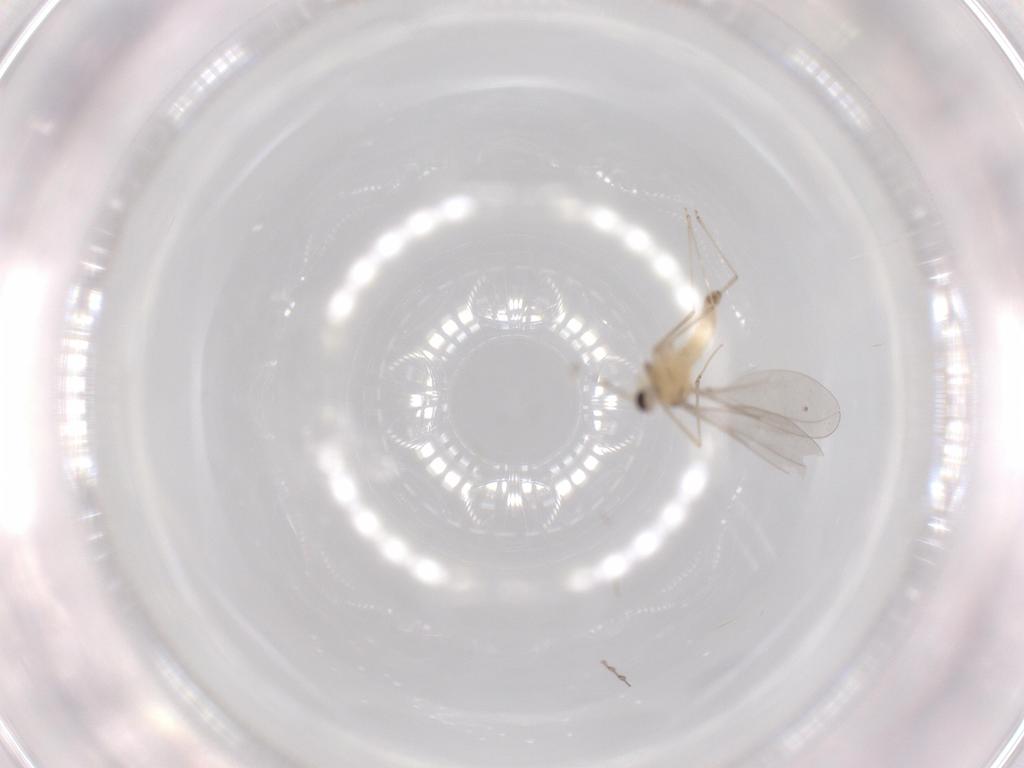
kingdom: Animalia
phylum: Arthropoda
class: Insecta
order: Diptera
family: Cecidomyiidae
